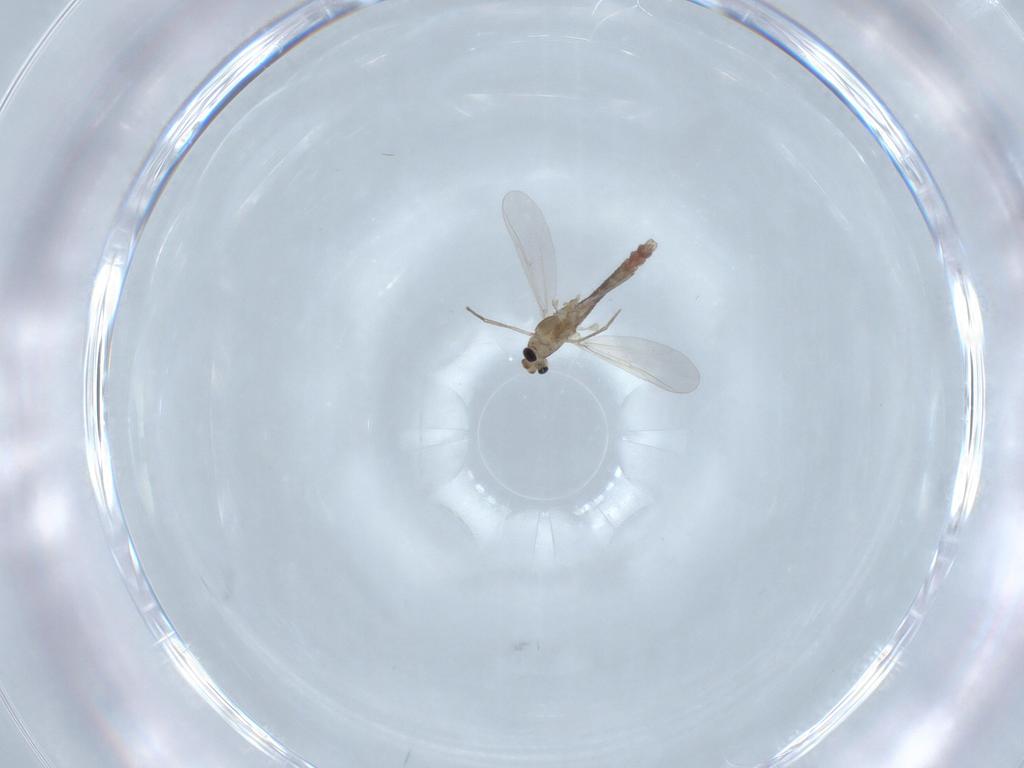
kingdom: Animalia
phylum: Arthropoda
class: Insecta
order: Diptera
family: Chironomidae
